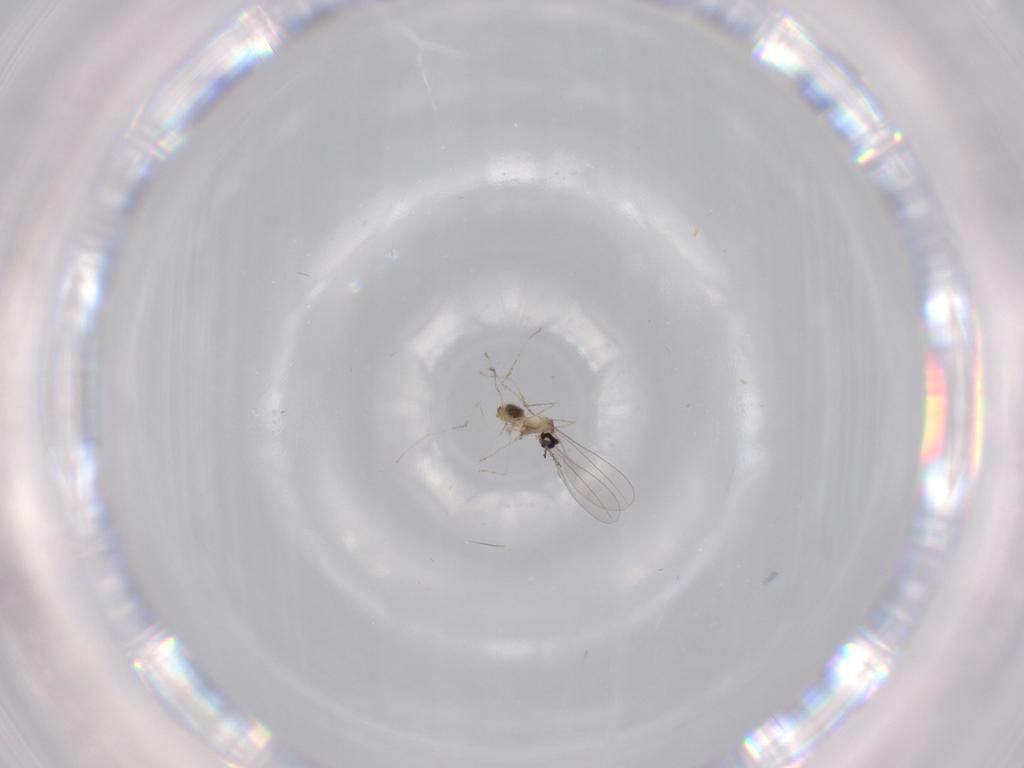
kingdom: Animalia
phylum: Arthropoda
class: Insecta
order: Diptera
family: Cecidomyiidae
